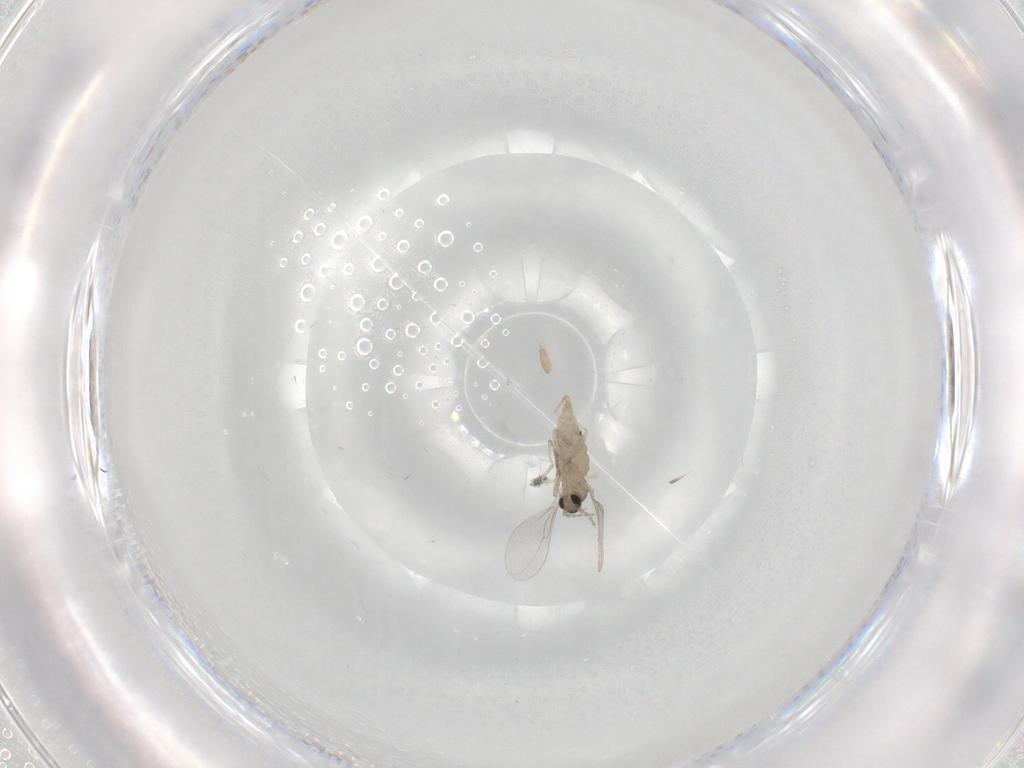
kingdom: Animalia
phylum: Arthropoda
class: Insecta
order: Diptera
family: Cecidomyiidae
